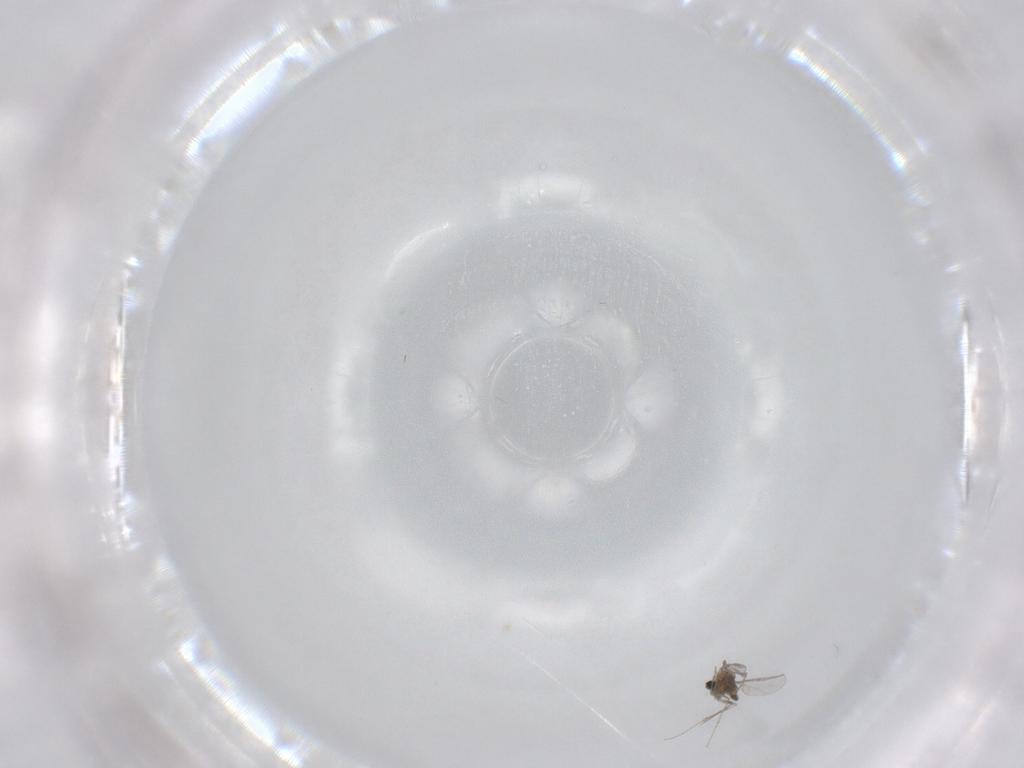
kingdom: Animalia
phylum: Arthropoda
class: Insecta
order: Diptera
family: Cecidomyiidae
